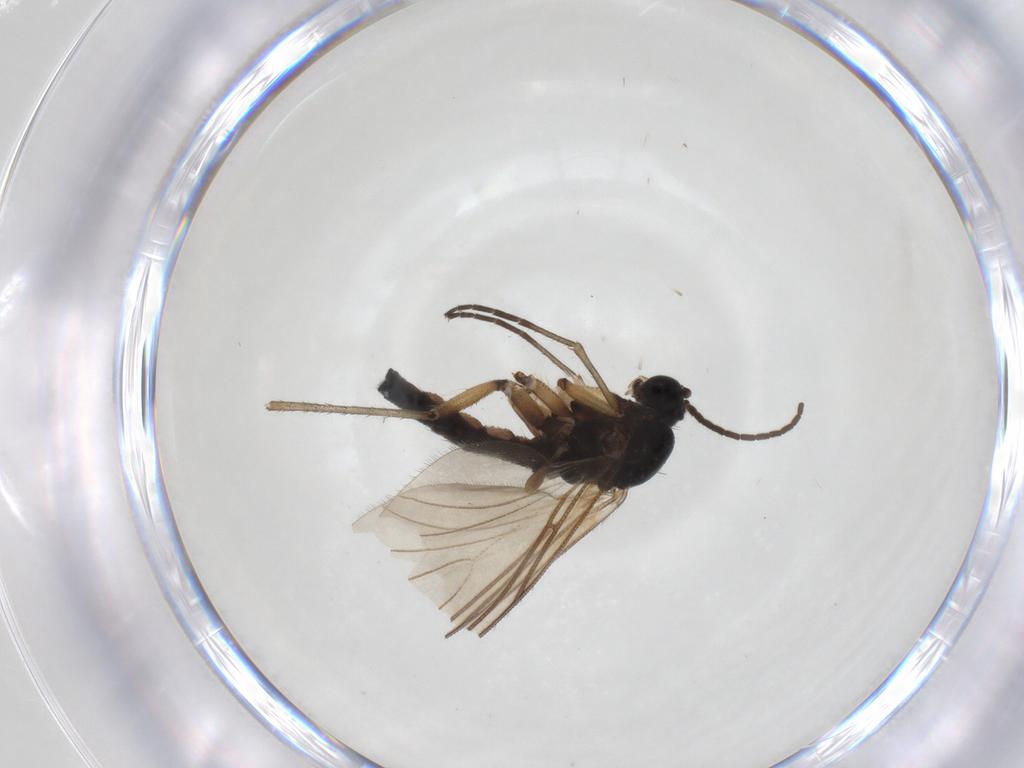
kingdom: Animalia
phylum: Arthropoda
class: Insecta
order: Diptera
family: Sciaridae
